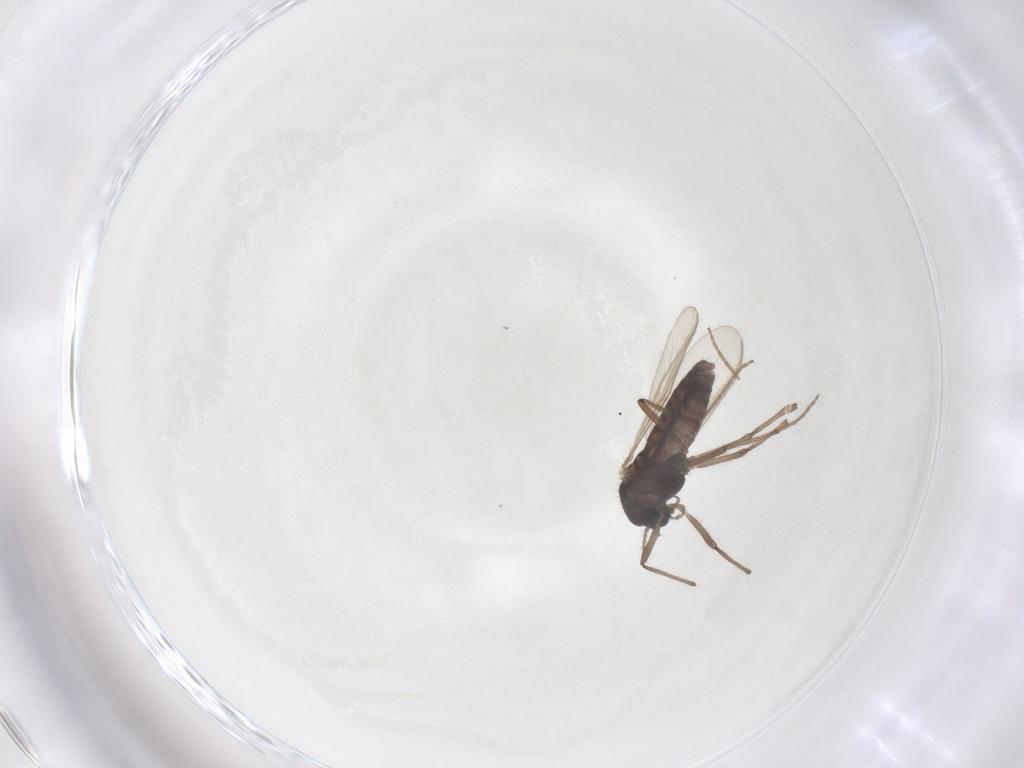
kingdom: Animalia
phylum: Arthropoda
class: Insecta
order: Diptera
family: Chironomidae
